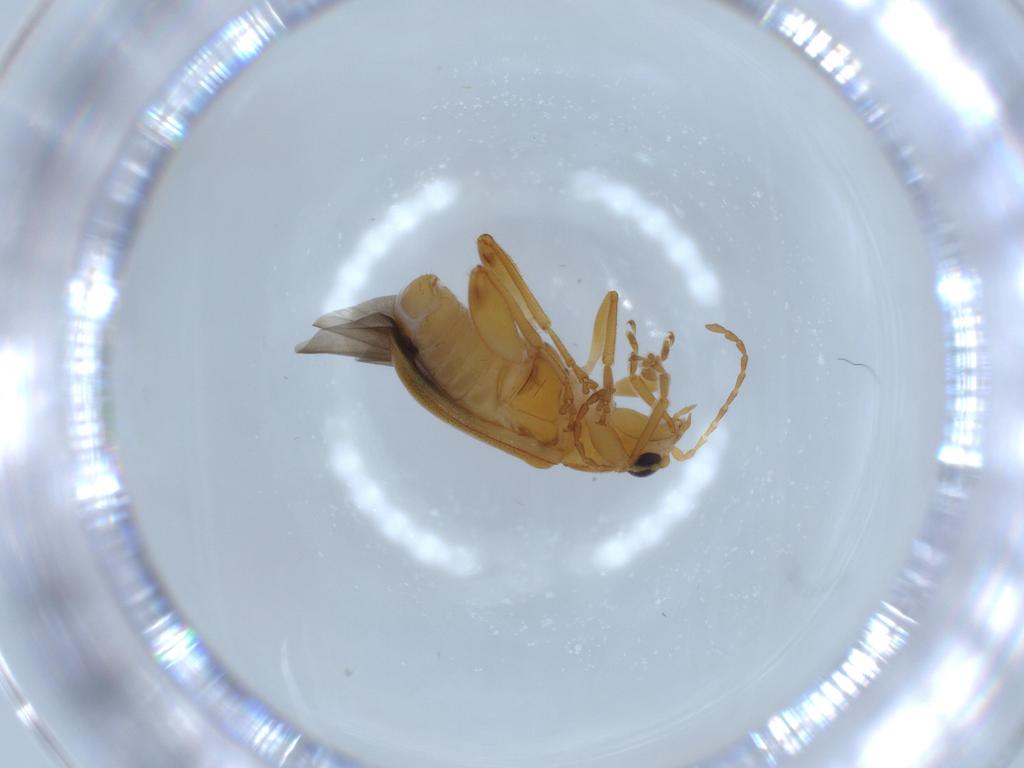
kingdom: Animalia
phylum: Arthropoda
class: Insecta
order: Coleoptera
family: Chrysomelidae
